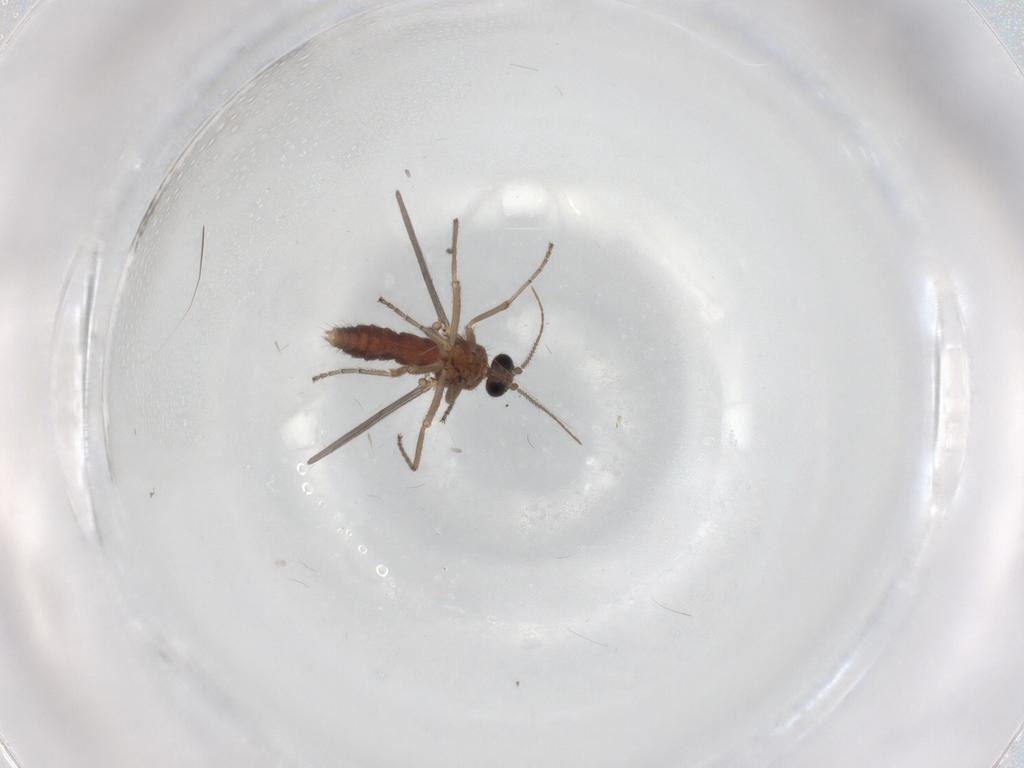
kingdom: Animalia
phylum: Arthropoda
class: Insecta
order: Diptera
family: Ceratopogonidae
